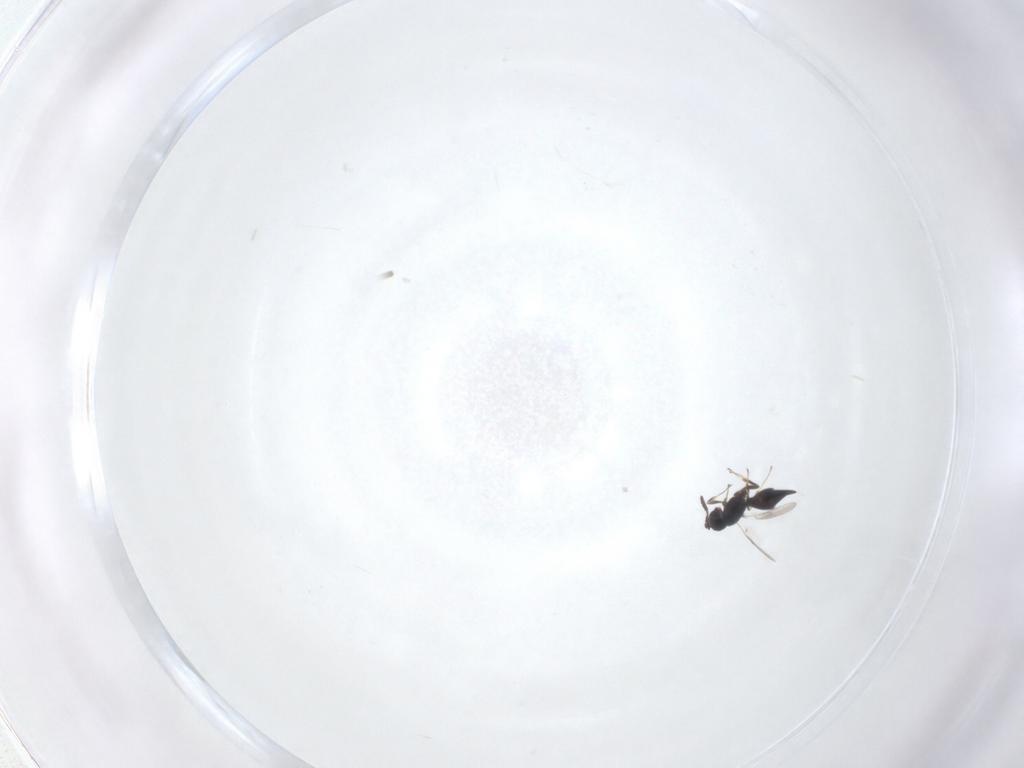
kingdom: Animalia
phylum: Arthropoda
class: Insecta
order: Hymenoptera
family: Scelionidae
